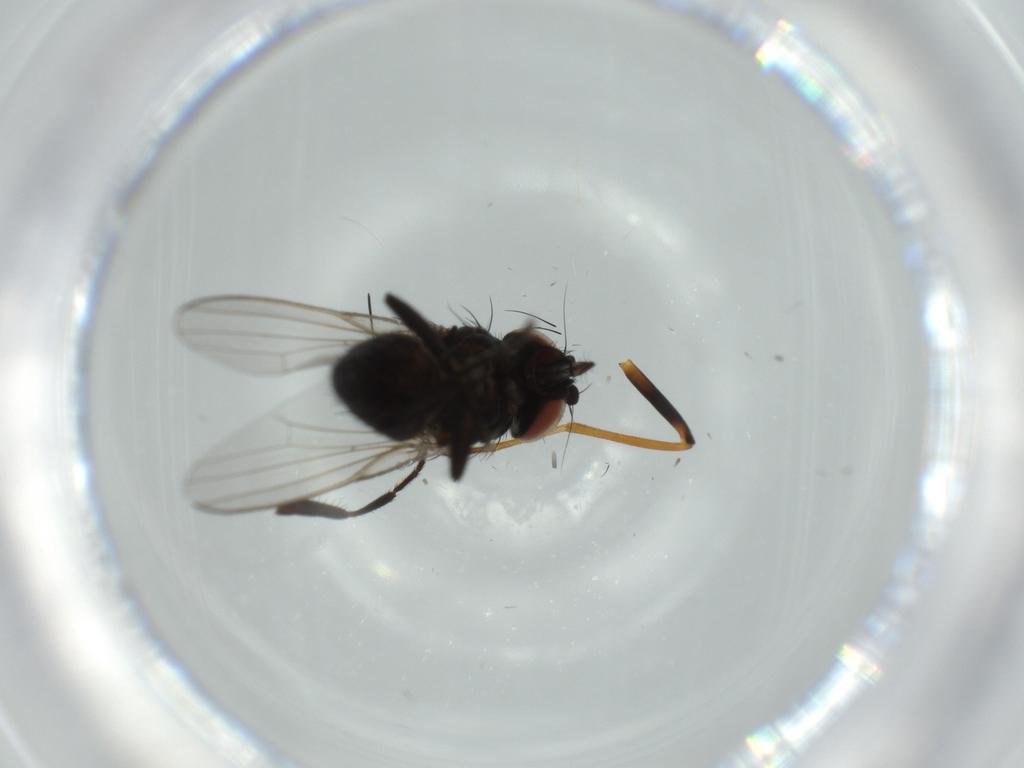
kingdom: Animalia
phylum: Arthropoda
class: Insecta
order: Diptera
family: Milichiidae
